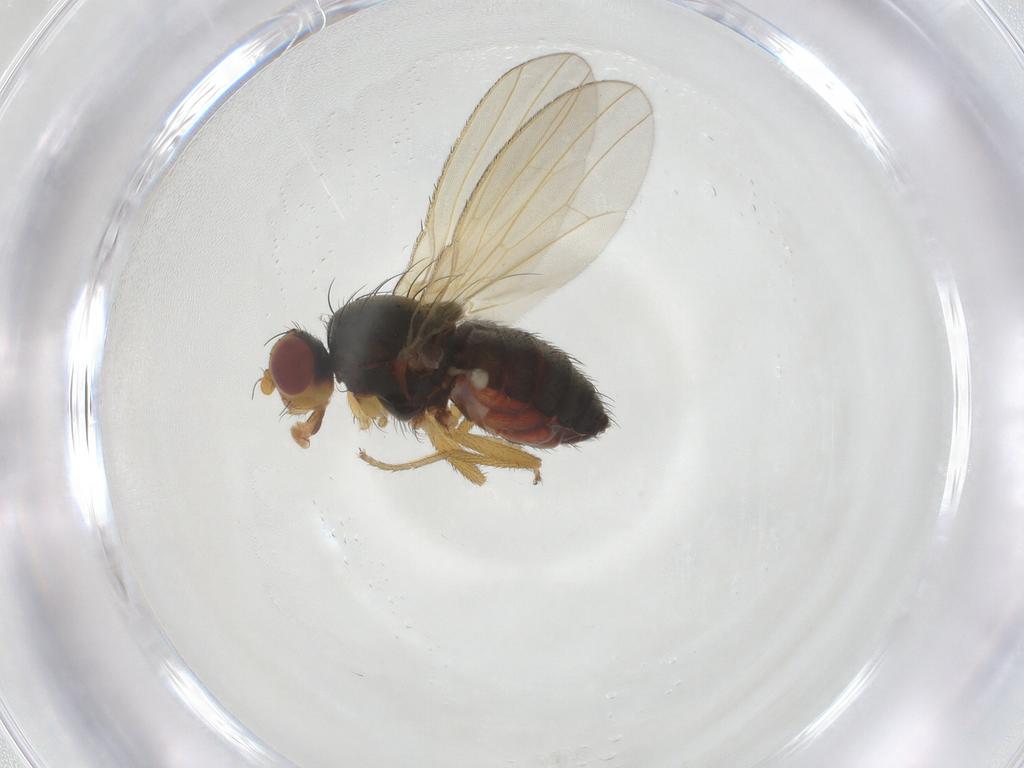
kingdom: Animalia
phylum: Arthropoda
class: Insecta
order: Diptera
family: Heleomyzidae
